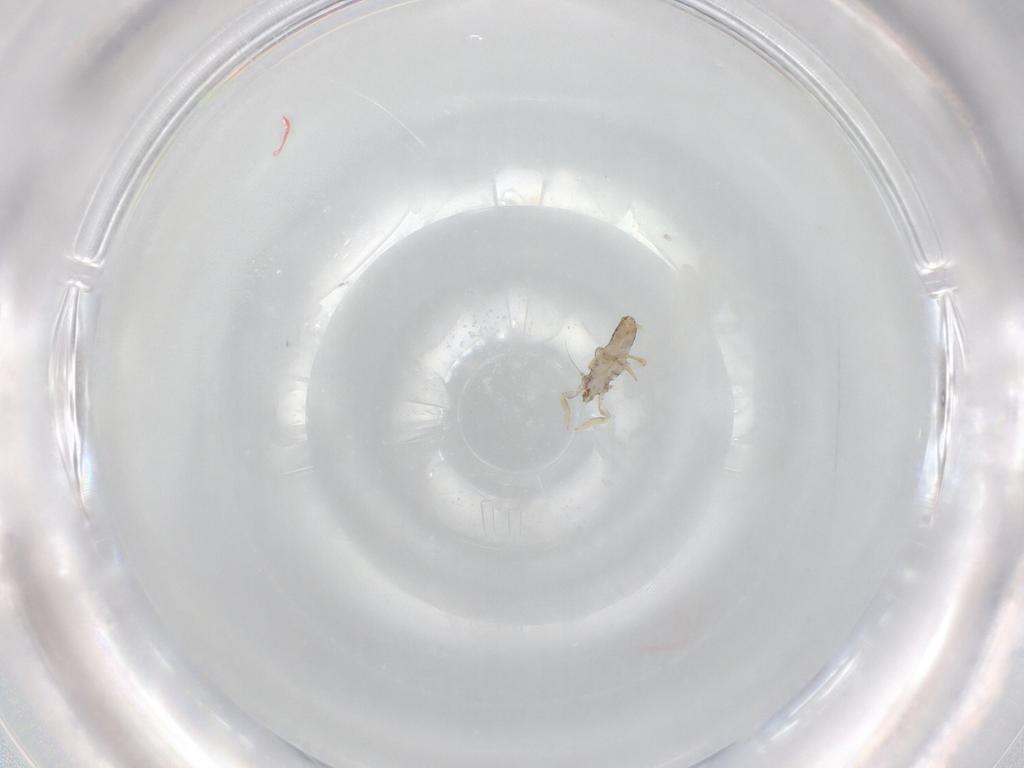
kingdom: Animalia
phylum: Arthropoda
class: Insecta
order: Hemiptera
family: Delphacidae
